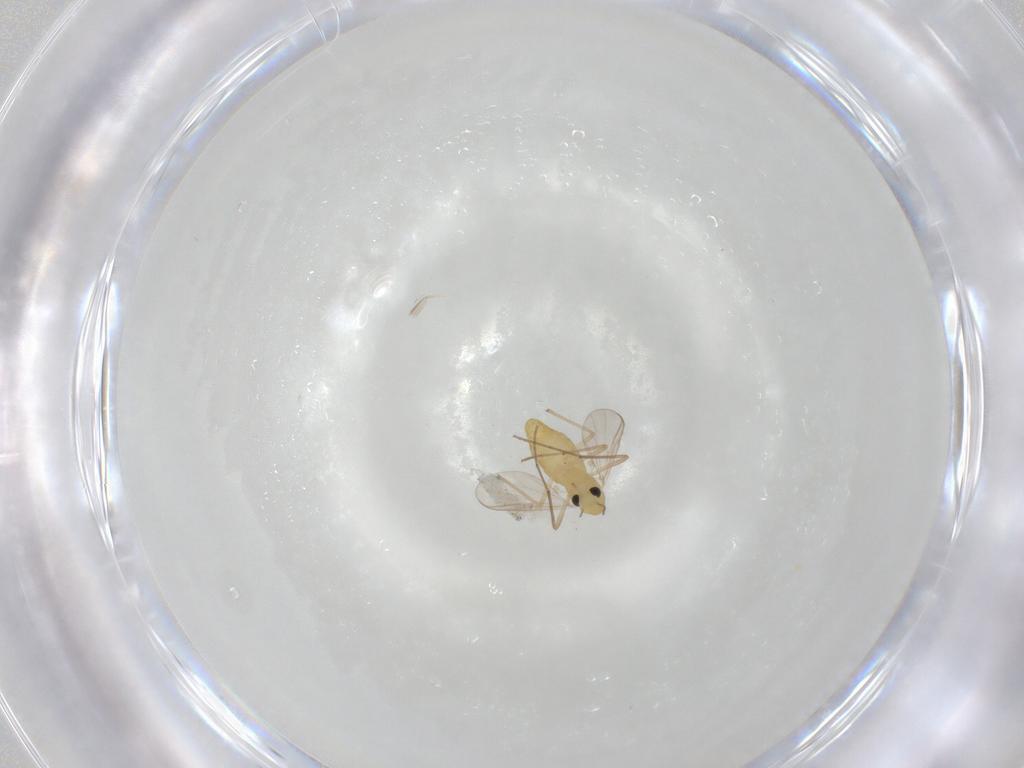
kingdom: Animalia
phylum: Arthropoda
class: Insecta
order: Diptera
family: Chironomidae
